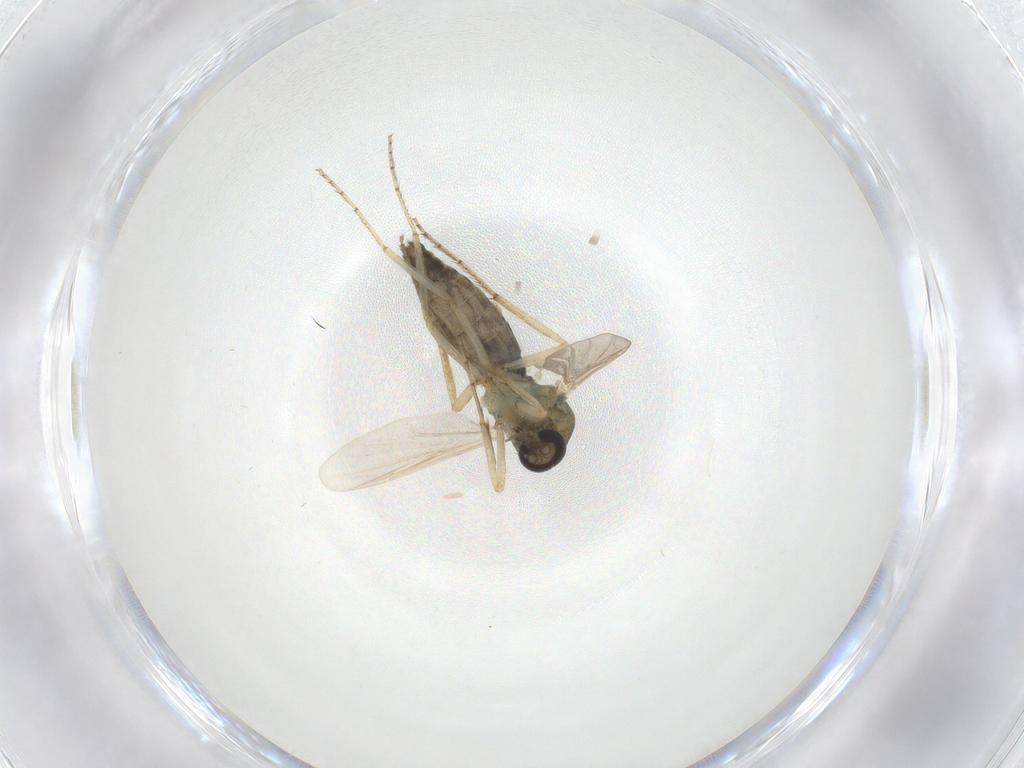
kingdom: Animalia
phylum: Arthropoda
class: Insecta
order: Diptera
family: Ceratopogonidae
